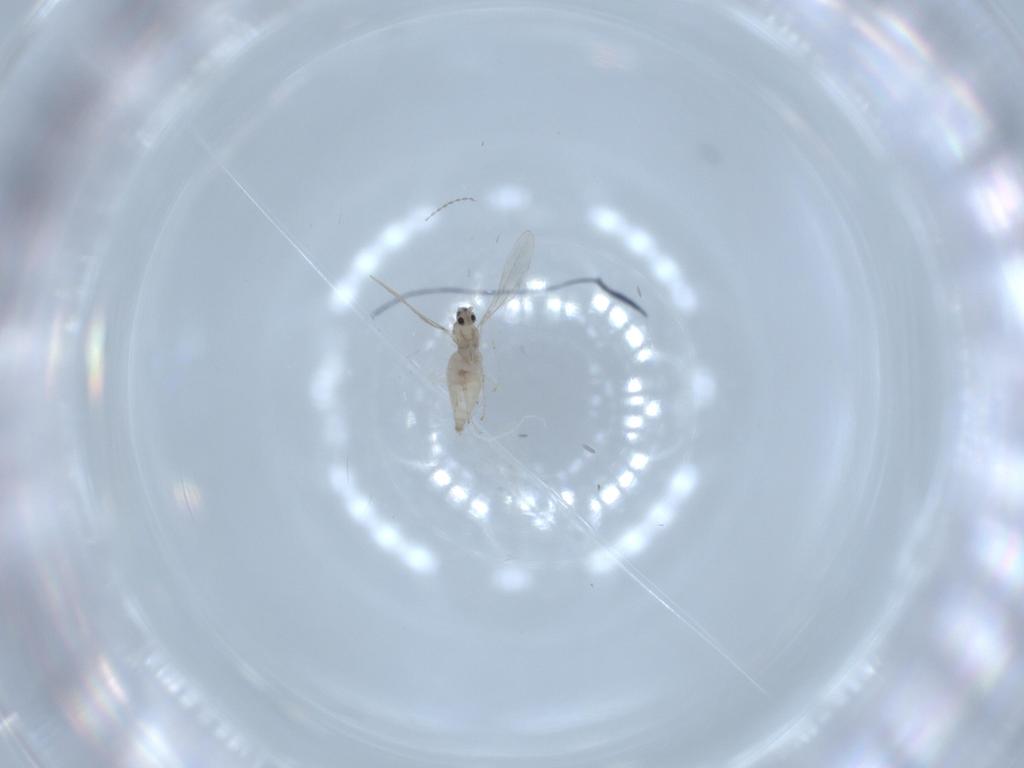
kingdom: Animalia
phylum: Arthropoda
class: Insecta
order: Diptera
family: Cecidomyiidae
